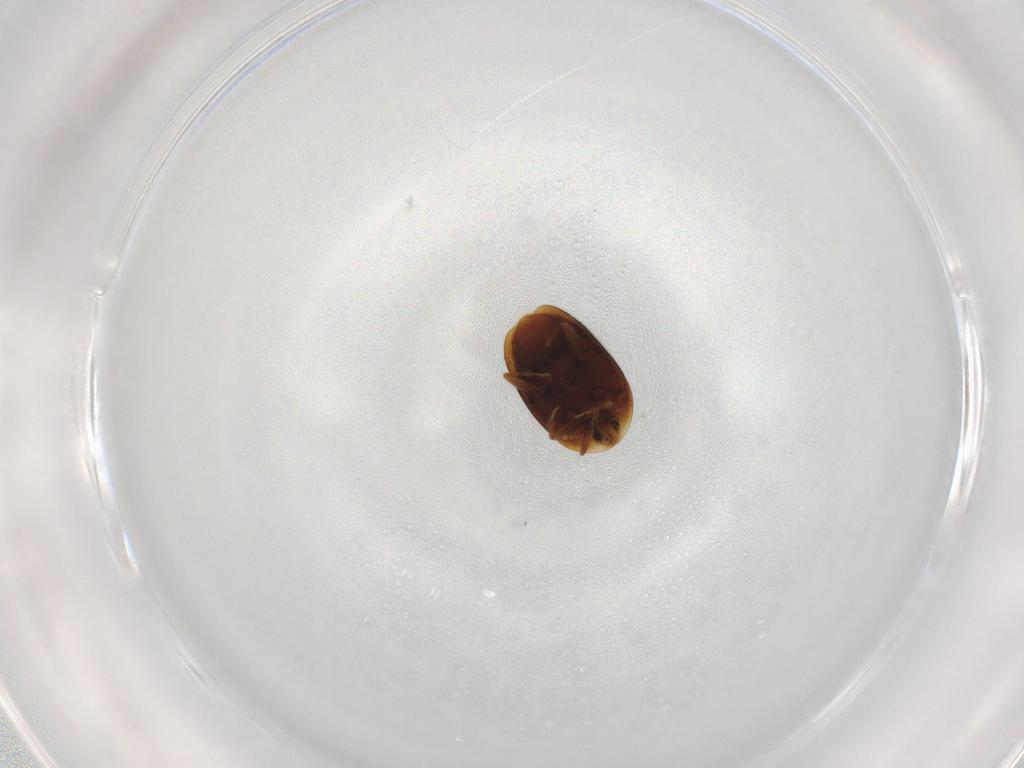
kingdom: Animalia
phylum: Arthropoda
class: Insecta
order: Coleoptera
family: Corylophidae
